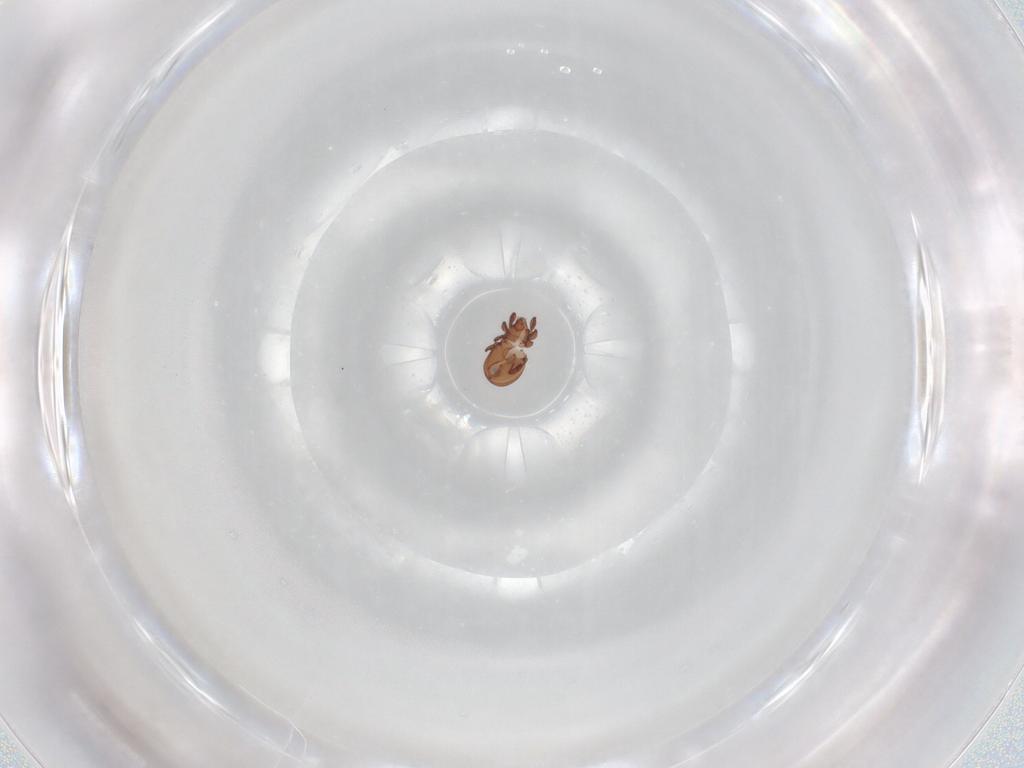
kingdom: Animalia
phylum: Arthropoda
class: Arachnida
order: Sarcoptiformes
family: Eremaeidae
